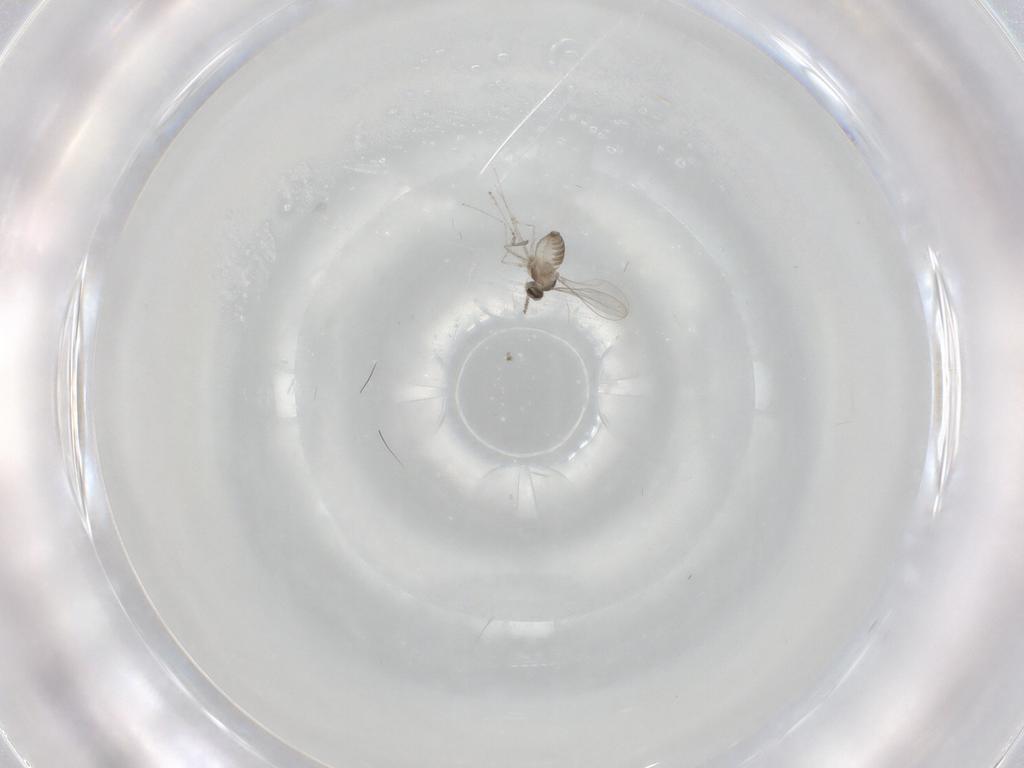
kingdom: Animalia
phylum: Arthropoda
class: Insecta
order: Diptera
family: Cecidomyiidae
